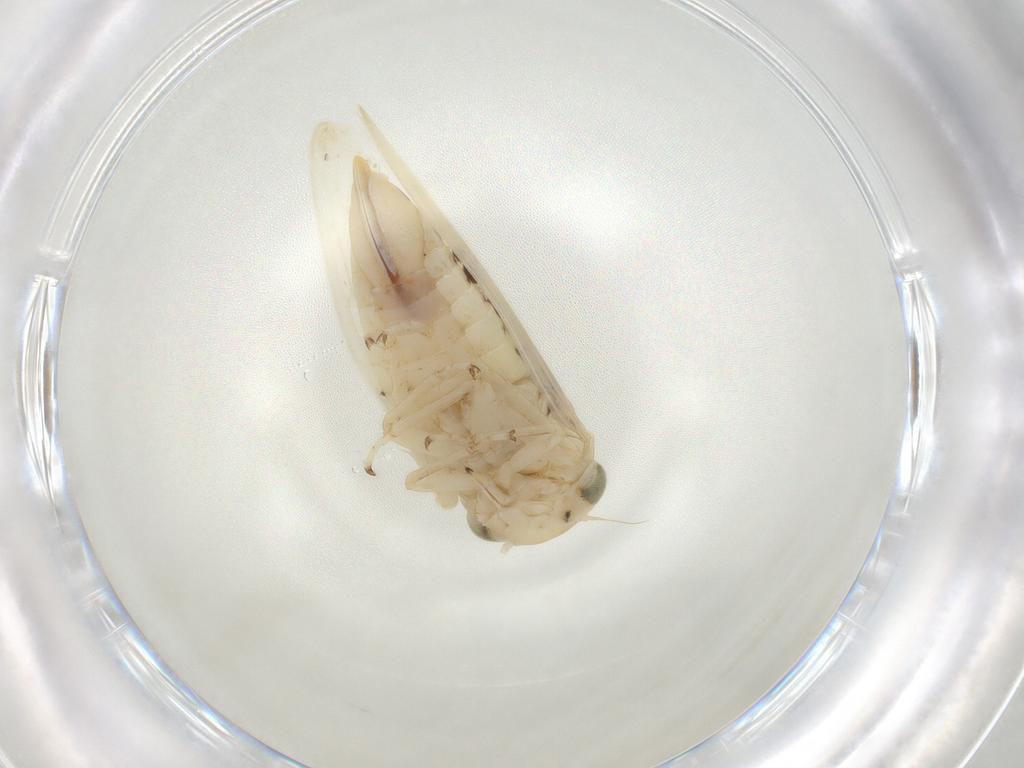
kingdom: Animalia
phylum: Arthropoda
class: Insecta
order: Hemiptera
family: Cicadellidae
